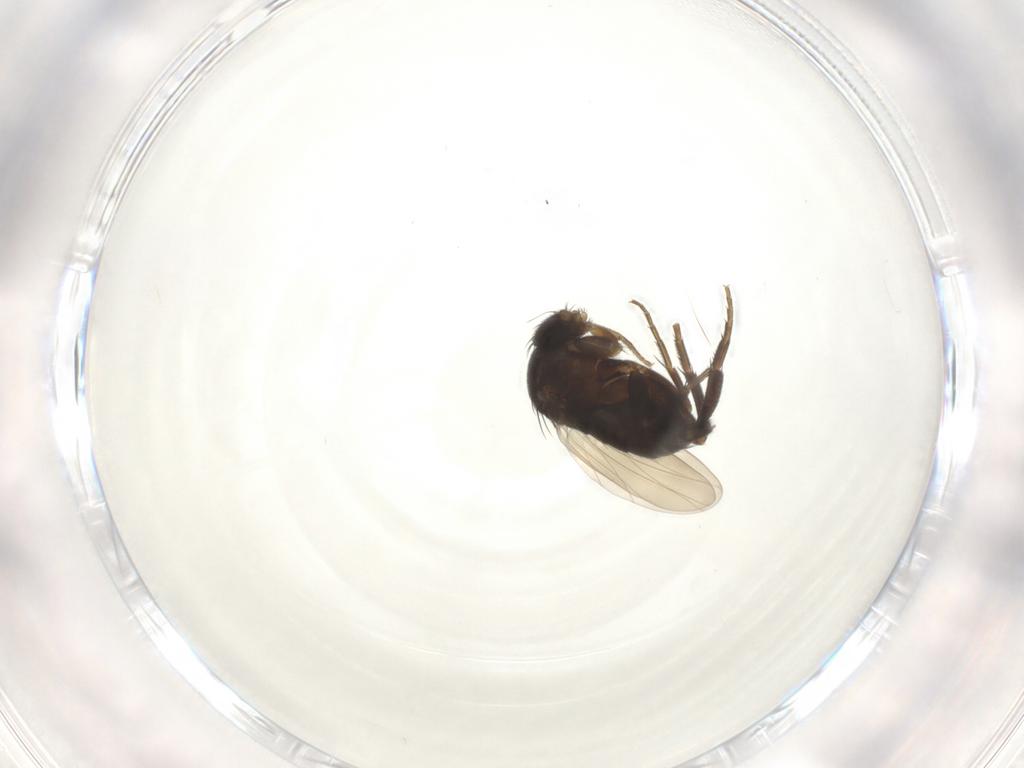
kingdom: Animalia
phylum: Arthropoda
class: Insecta
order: Diptera
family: Phoridae
